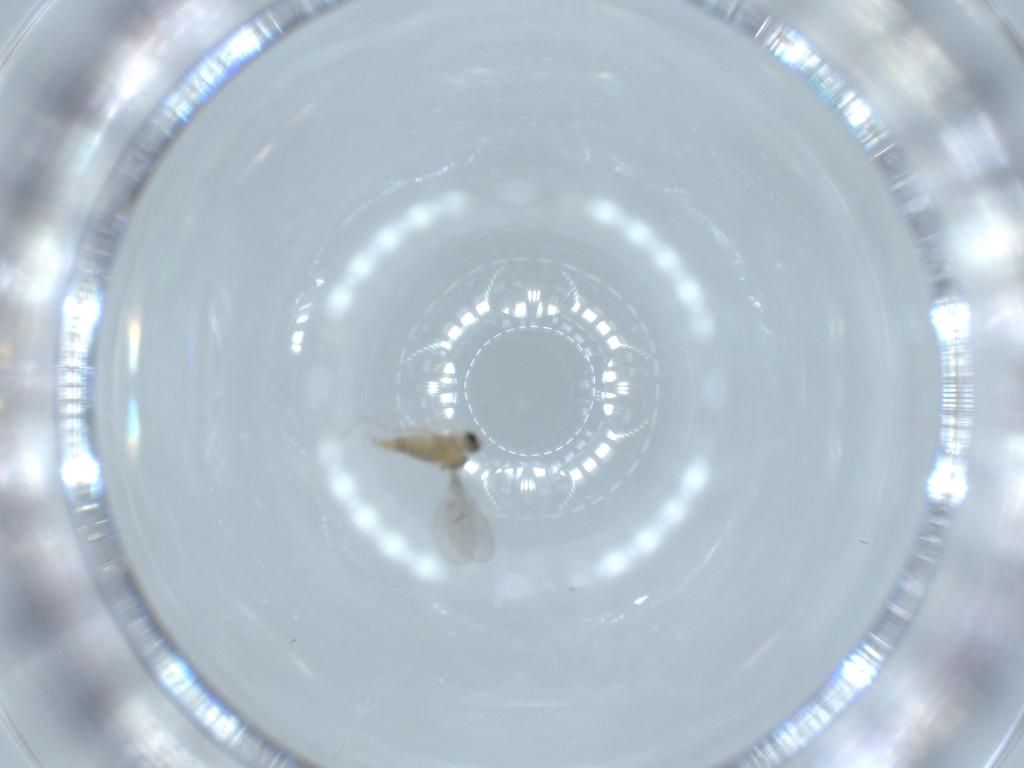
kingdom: Animalia
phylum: Arthropoda
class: Insecta
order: Diptera
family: Cecidomyiidae
